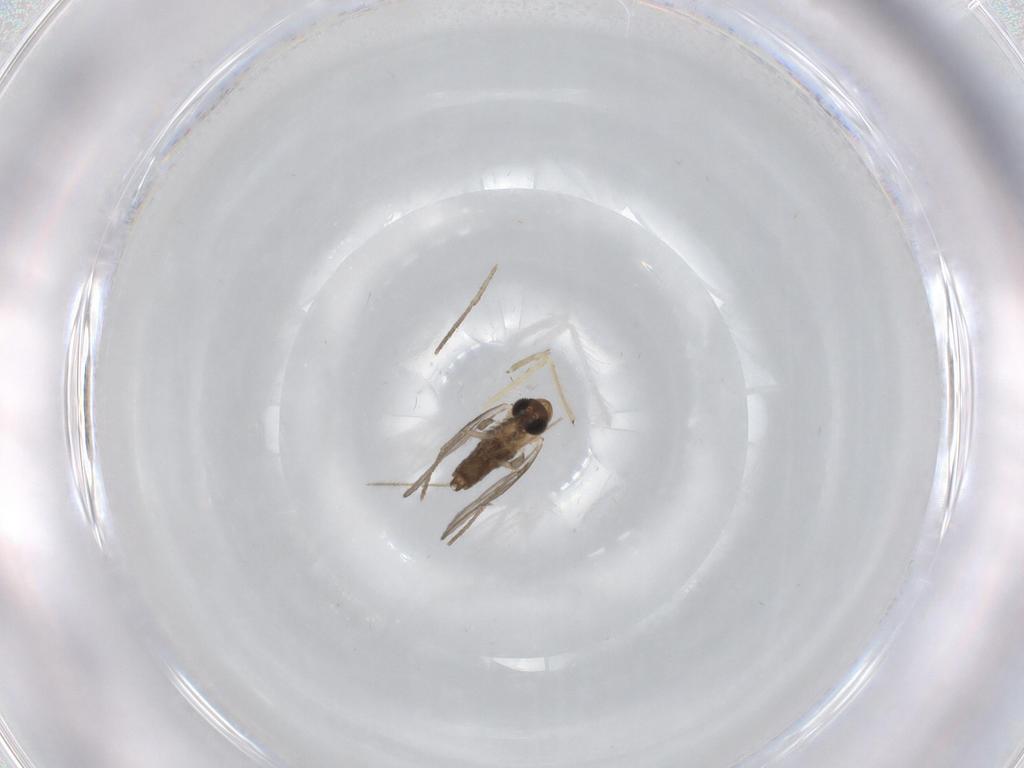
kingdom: Animalia
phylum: Arthropoda
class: Insecta
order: Diptera
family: Psychodidae
